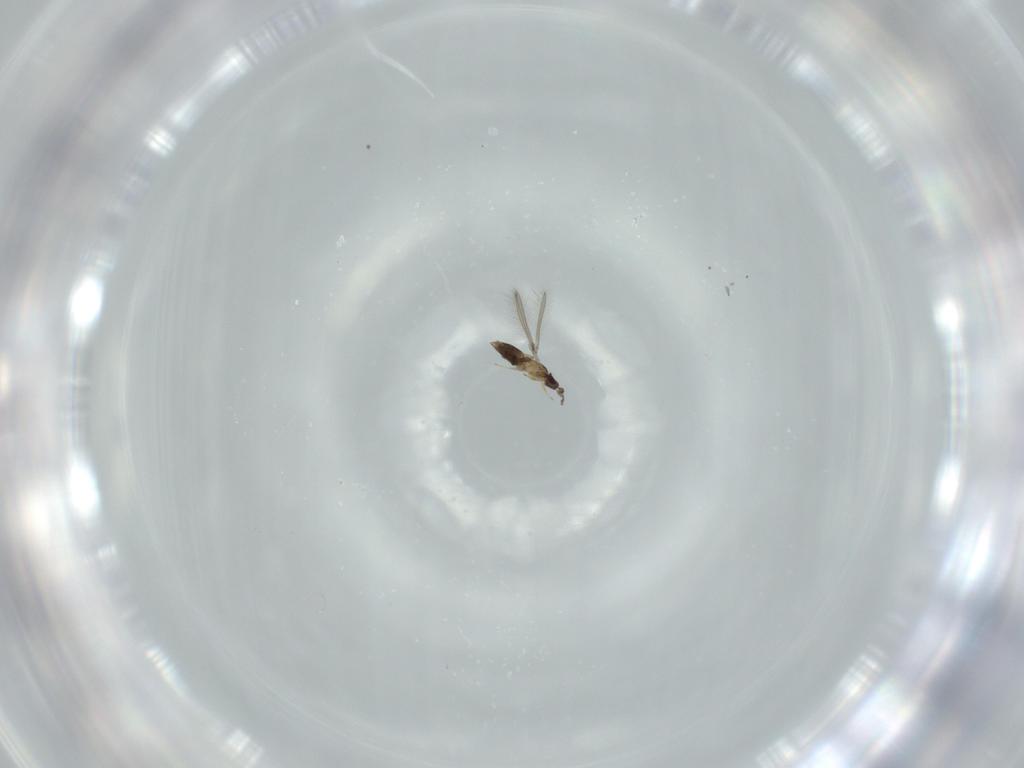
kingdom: Animalia
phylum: Arthropoda
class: Insecta
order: Hymenoptera
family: Mymaridae
